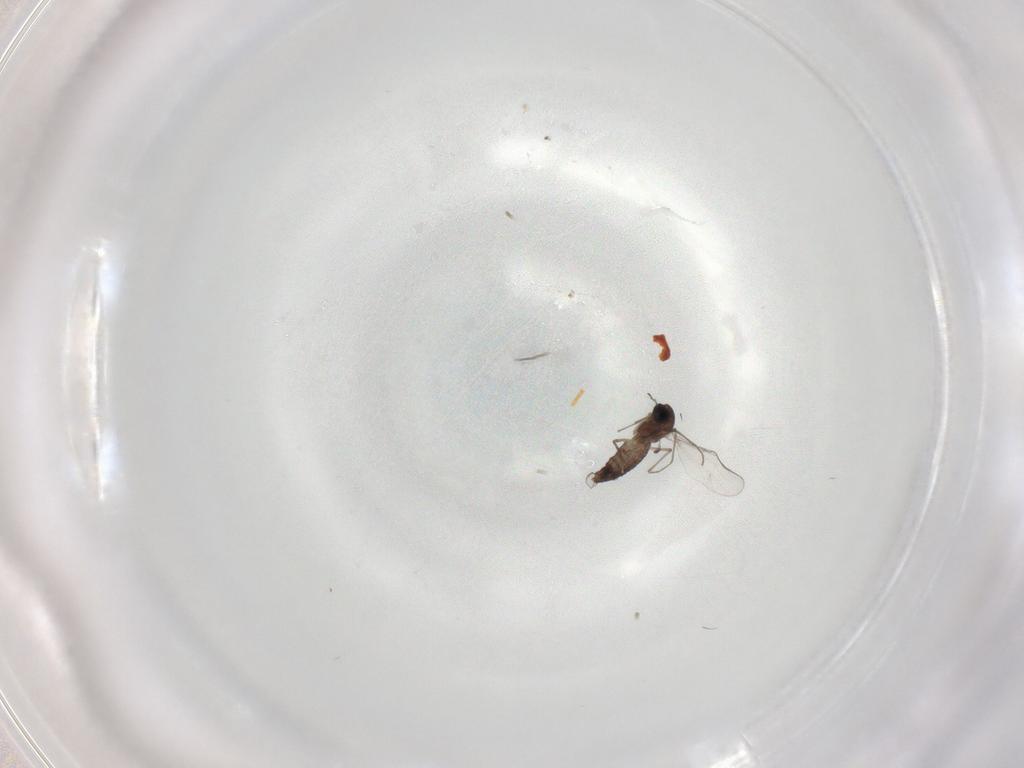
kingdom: Animalia
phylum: Arthropoda
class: Insecta
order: Diptera
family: Chironomidae
